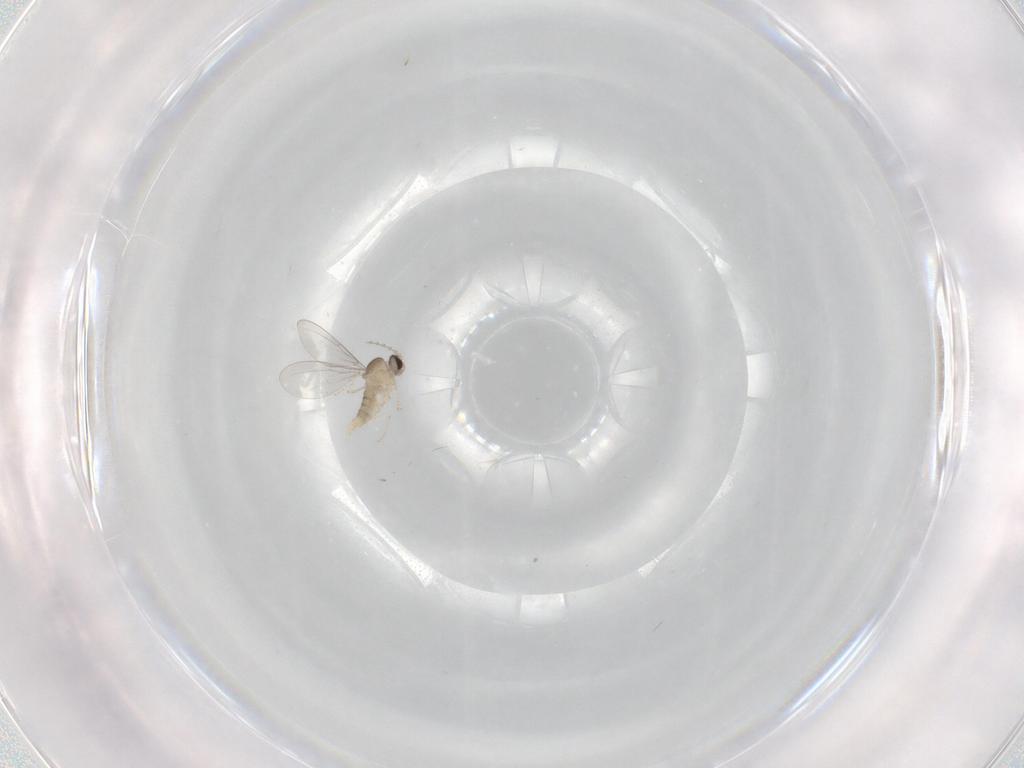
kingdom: Animalia
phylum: Arthropoda
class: Insecta
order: Diptera
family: Cecidomyiidae
